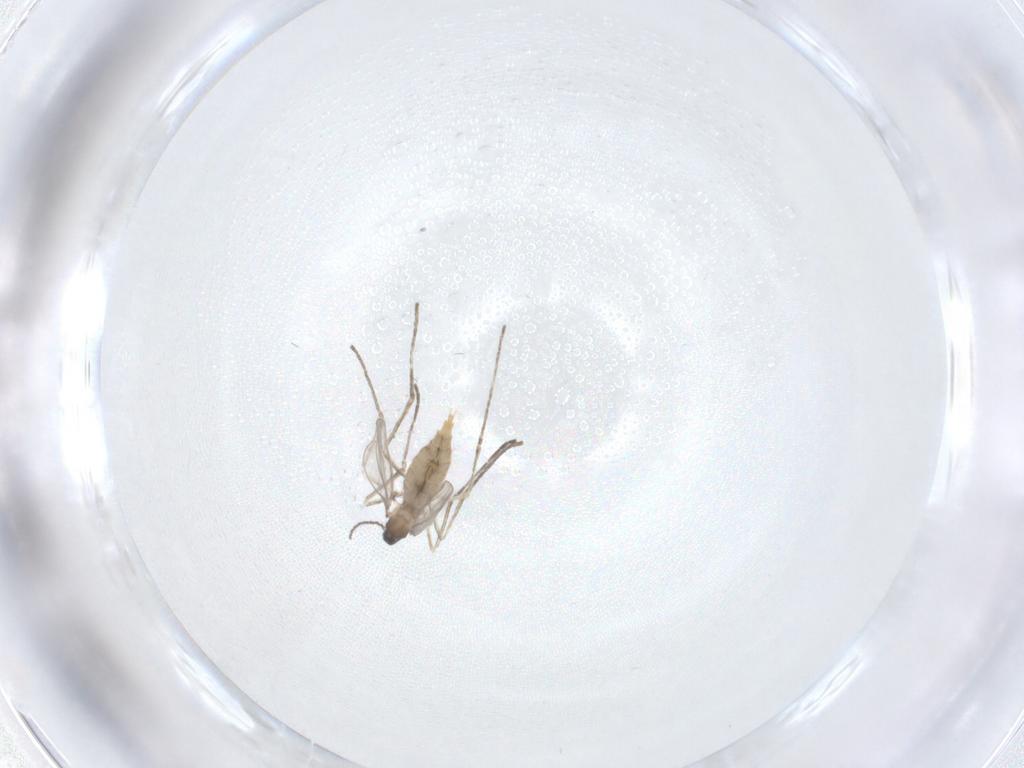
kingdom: Animalia
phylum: Arthropoda
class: Insecta
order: Diptera
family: Cecidomyiidae
